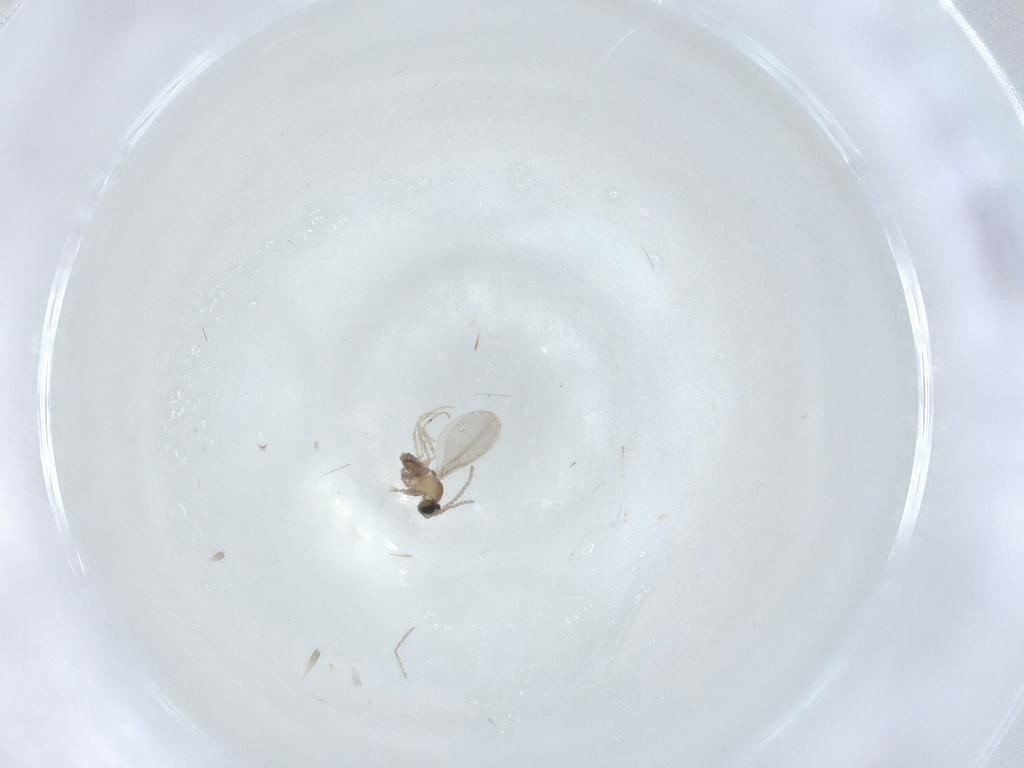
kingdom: Animalia
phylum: Arthropoda
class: Insecta
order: Diptera
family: Cecidomyiidae
